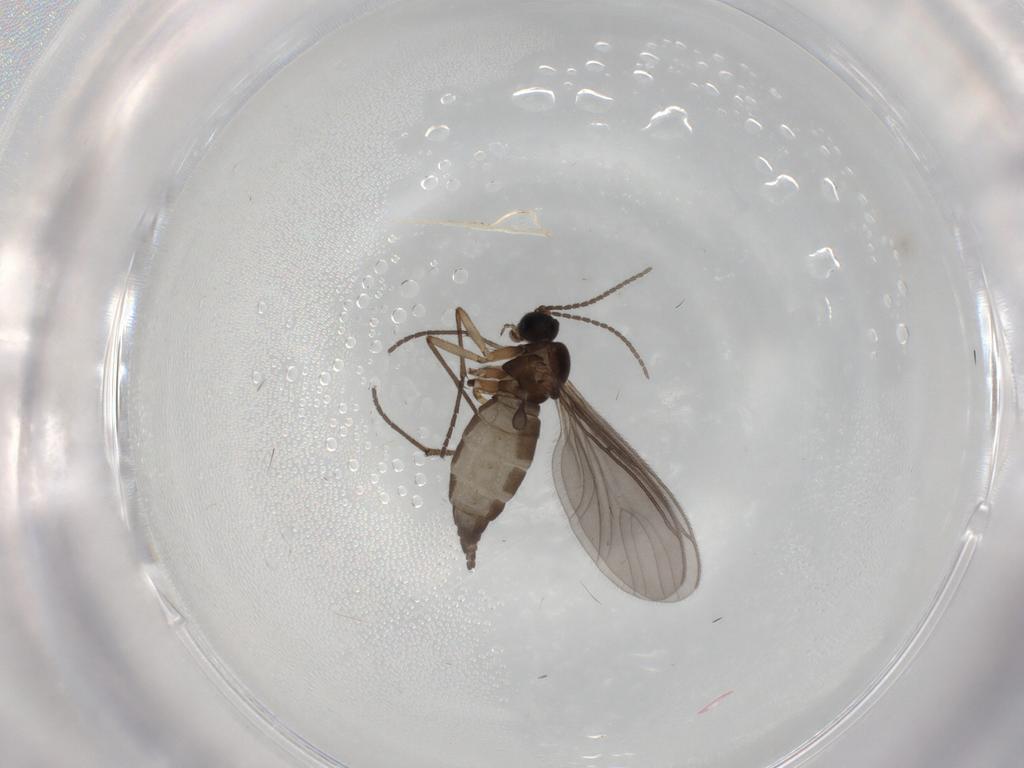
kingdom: Animalia
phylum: Arthropoda
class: Insecta
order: Diptera
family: Sciaridae
